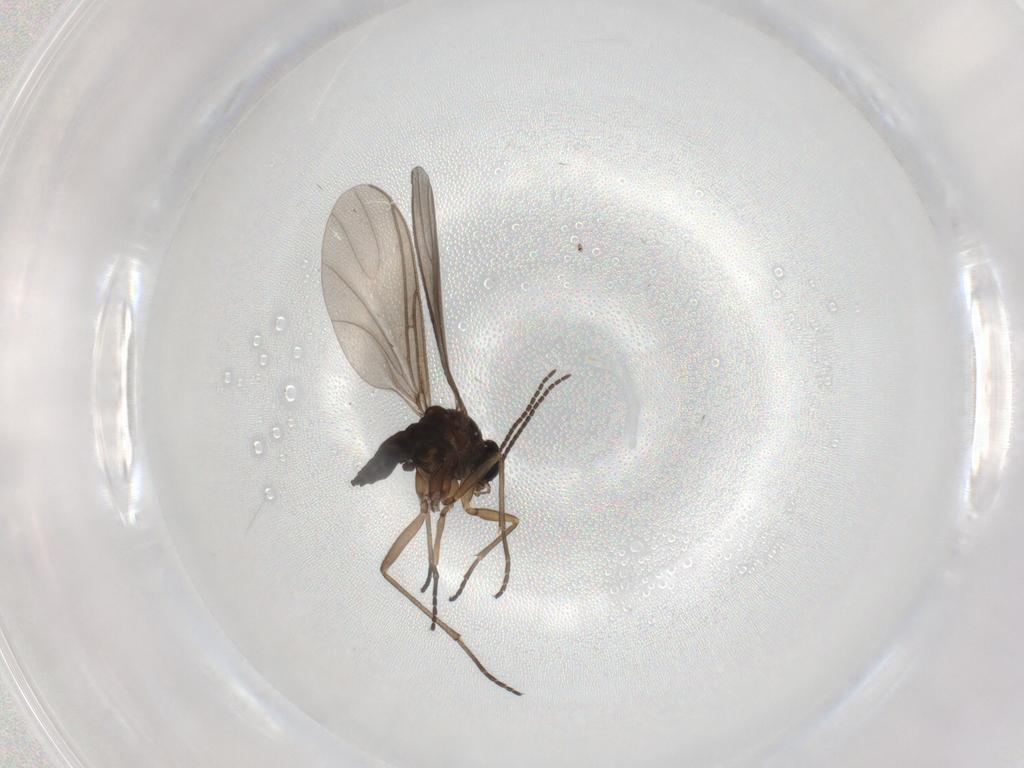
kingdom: Animalia
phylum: Arthropoda
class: Insecta
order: Diptera
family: Sciaridae
